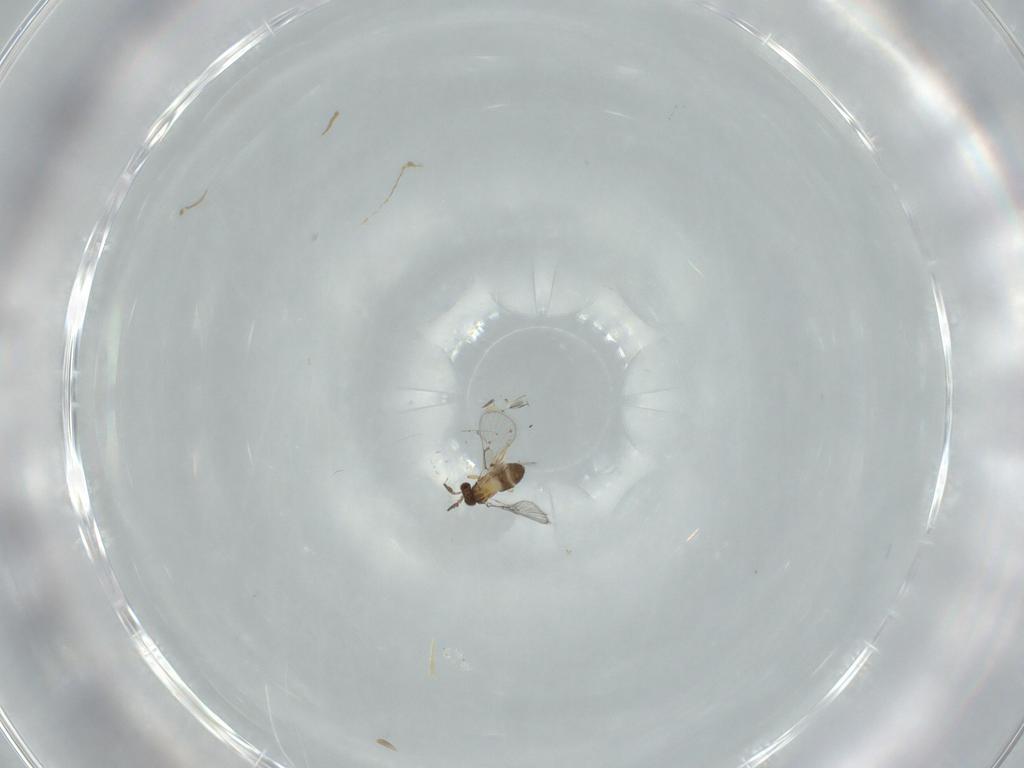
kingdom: Animalia
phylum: Arthropoda
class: Insecta
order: Hymenoptera
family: Trichogrammatidae
